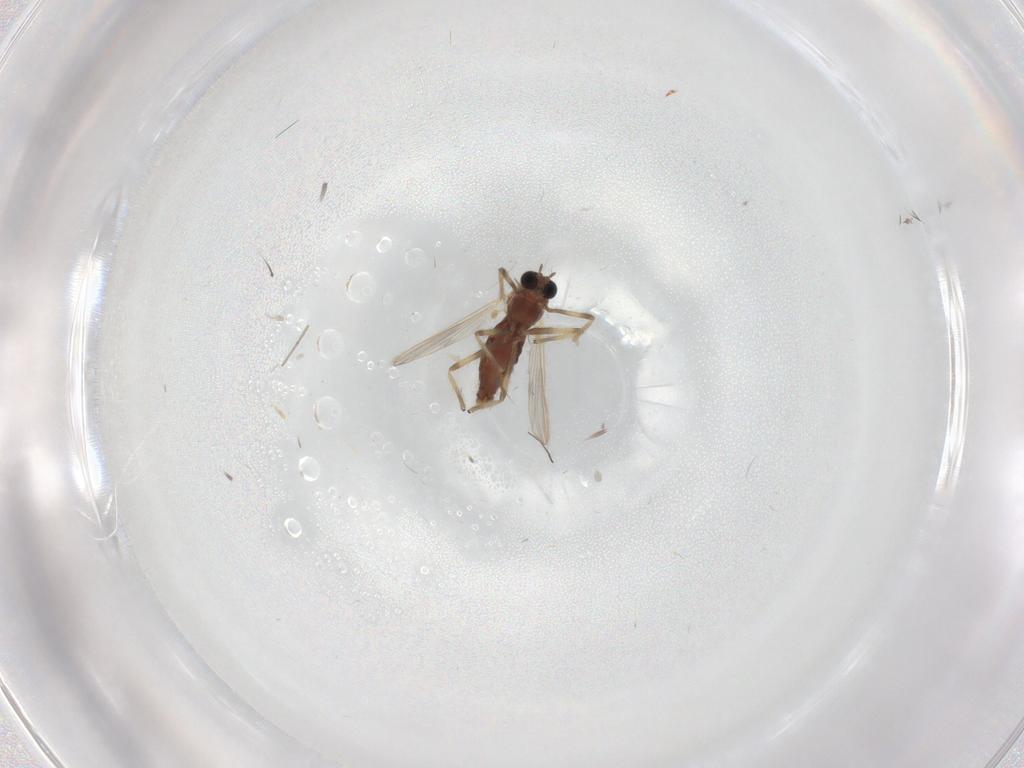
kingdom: Animalia
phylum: Arthropoda
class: Insecta
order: Diptera
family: Chironomidae
